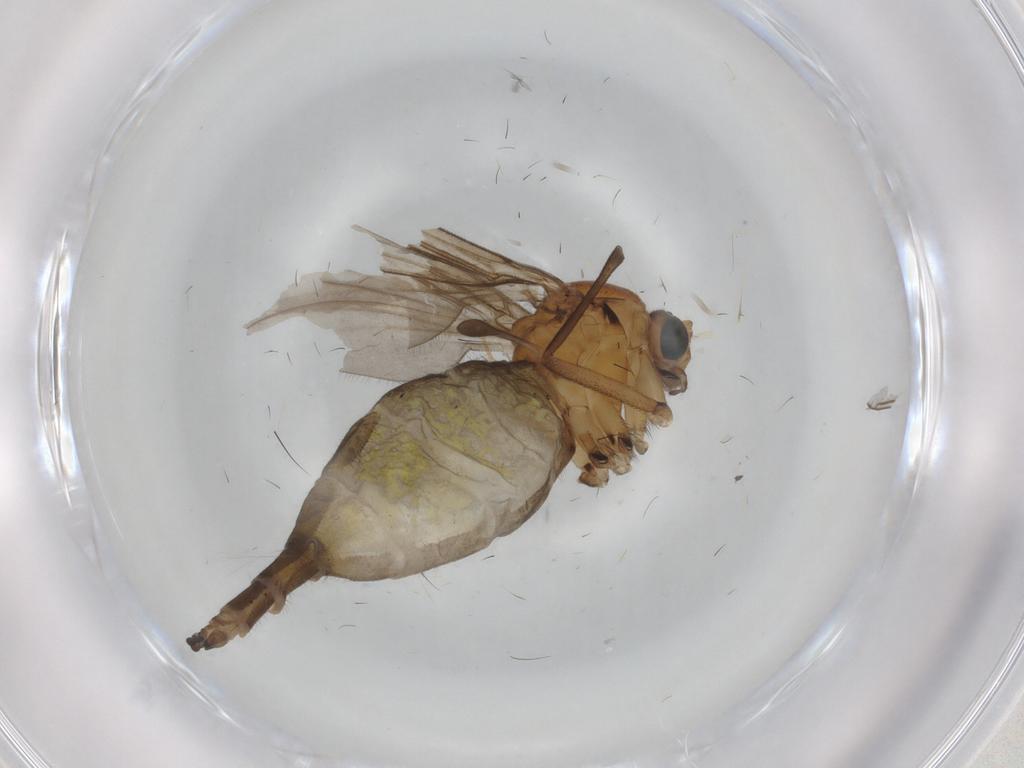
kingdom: Animalia
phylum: Arthropoda
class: Insecta
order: Diptera
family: Sciaridae
